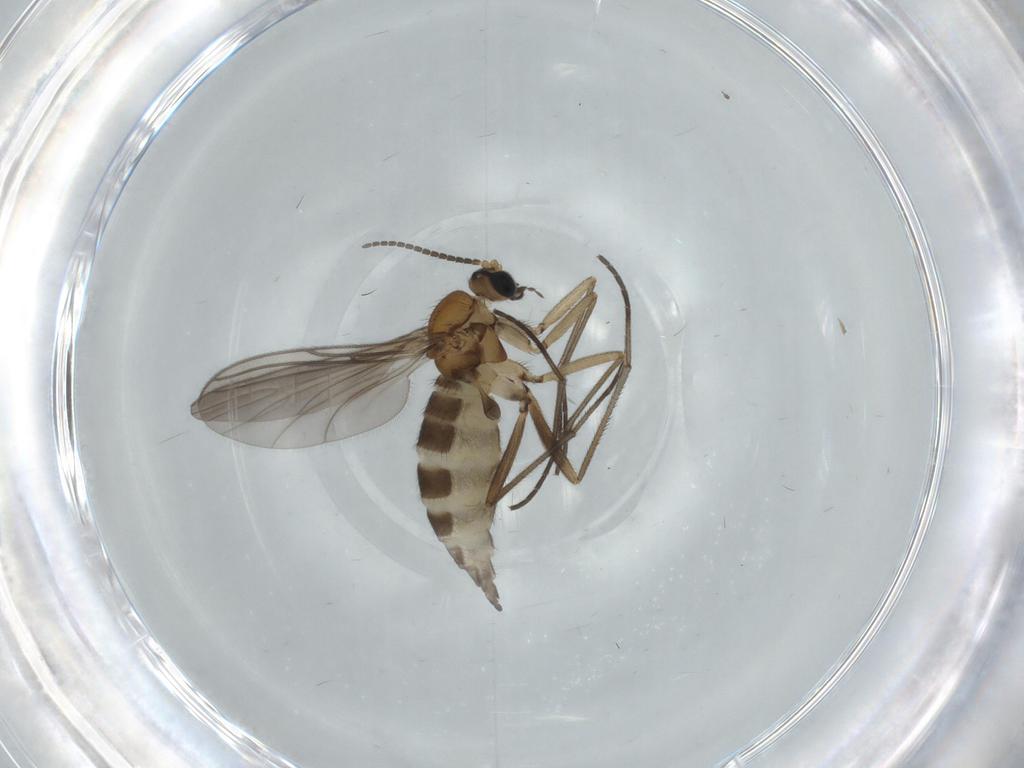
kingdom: Animalia
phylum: Arthropoda
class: Insecta
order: Diptera
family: Sciaridae
